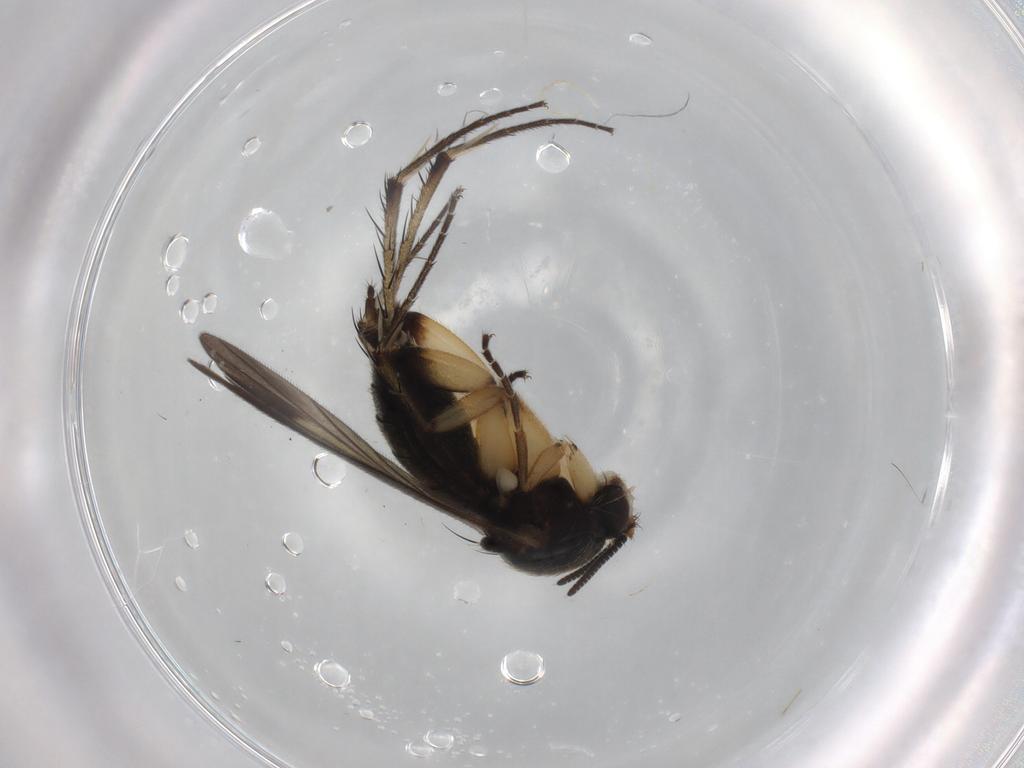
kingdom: Animalia
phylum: Arthropoda
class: Insecta
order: Diptera
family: Mycetophilidae
